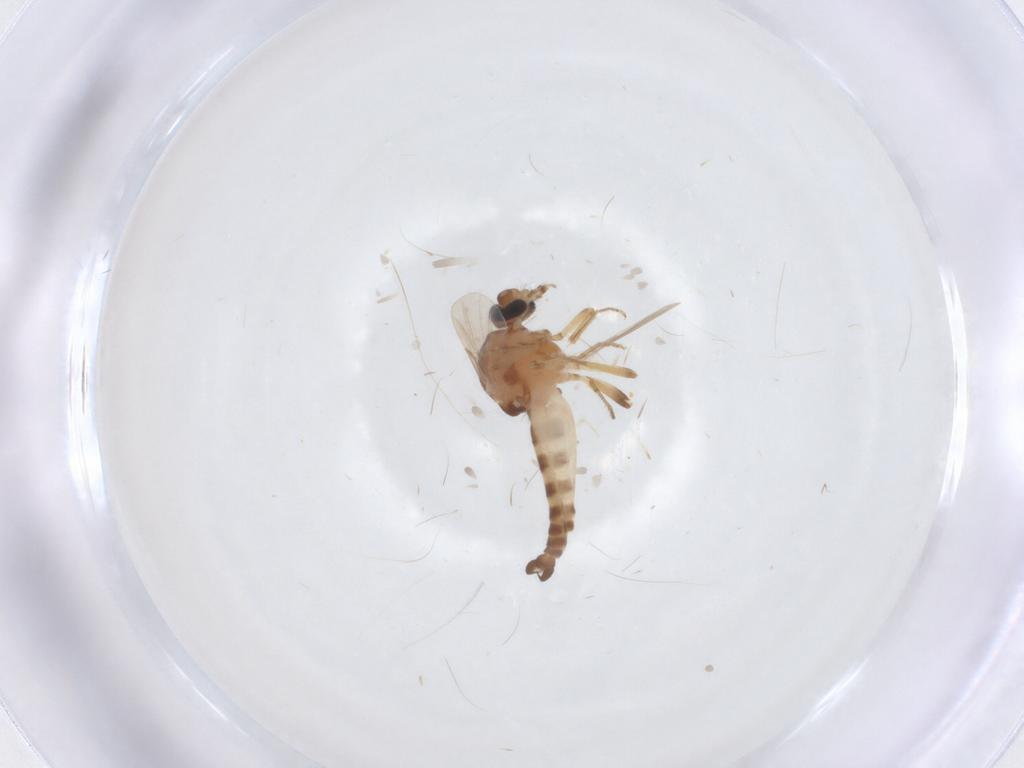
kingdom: Animalia
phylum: Arthropoda
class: Insecta
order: Diptera
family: Ceratopogonidae
